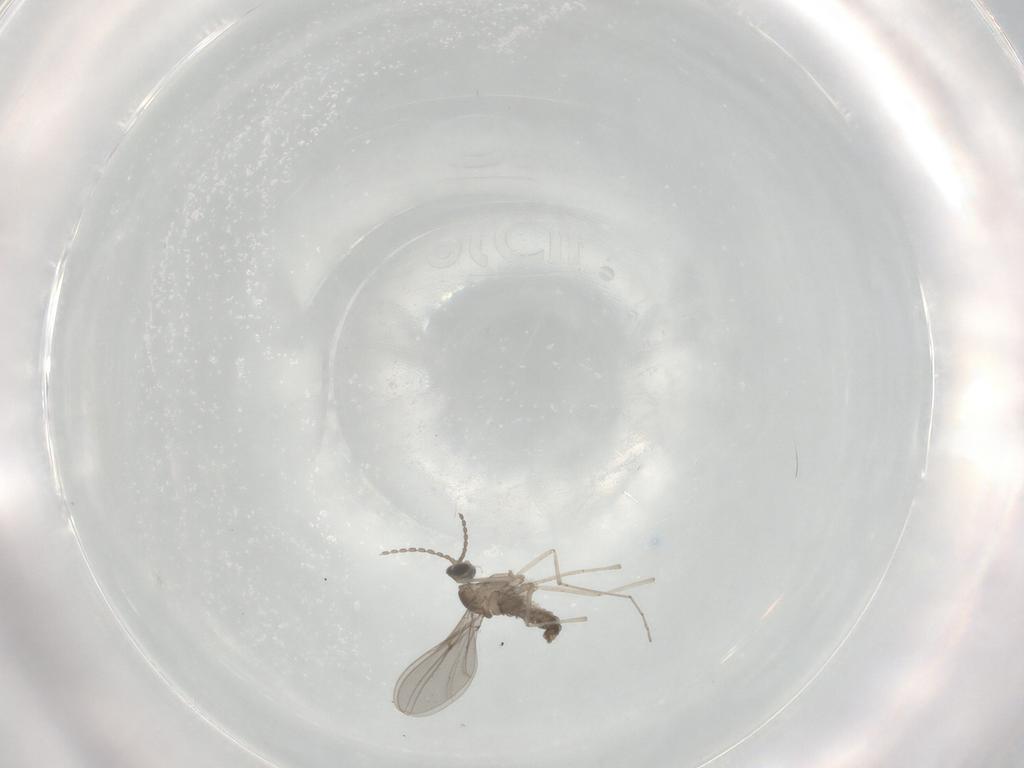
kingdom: Animalia
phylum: Arthropoda
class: Insecta
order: Diptera
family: Cecidomyiidae
